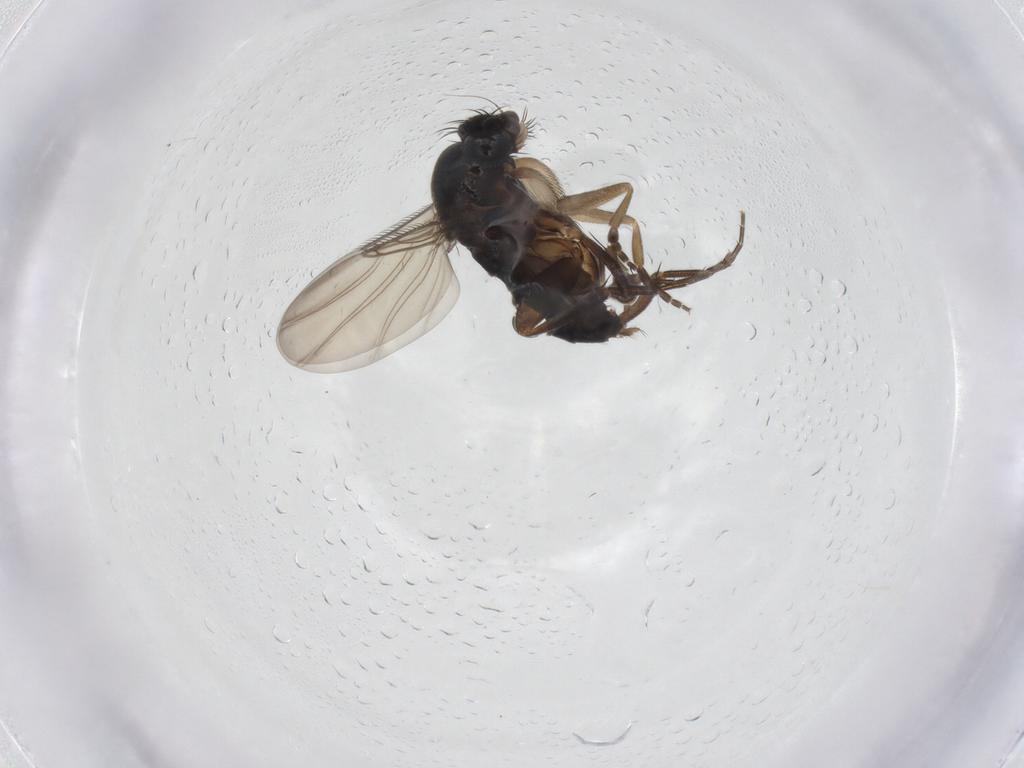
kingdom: Animalia
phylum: Arthropoda
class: Insecta
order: Diptera
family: Phoridae
